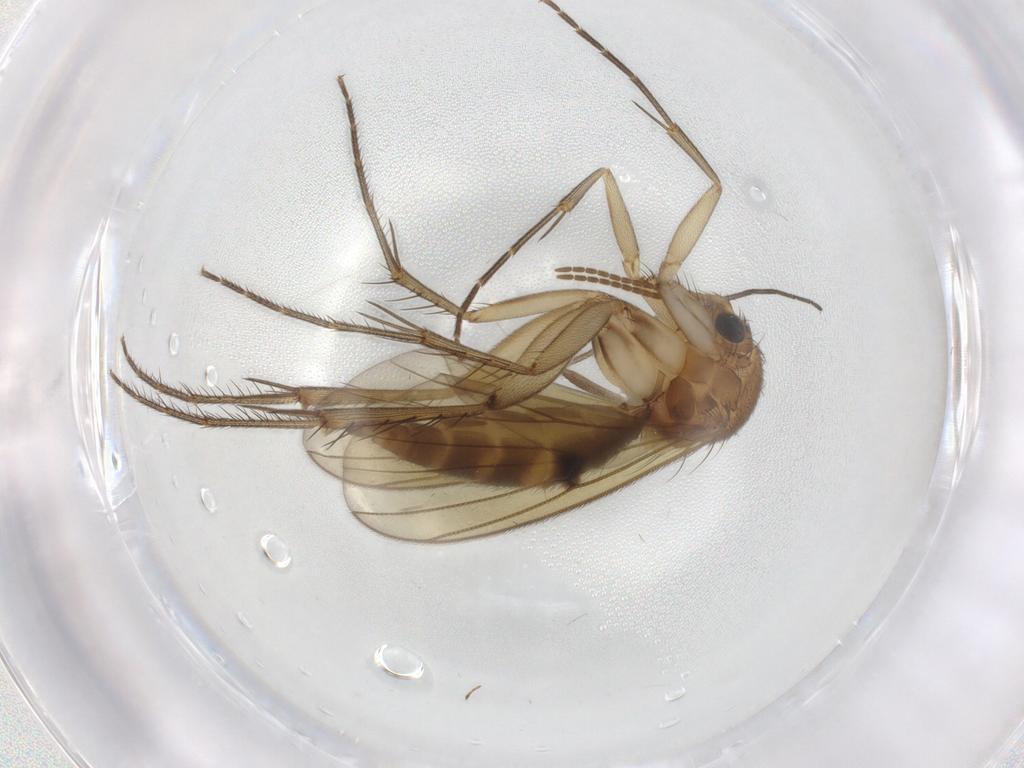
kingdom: Animalia
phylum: Arthropoda
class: Insecta
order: Diptera
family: Mycetophilidae
